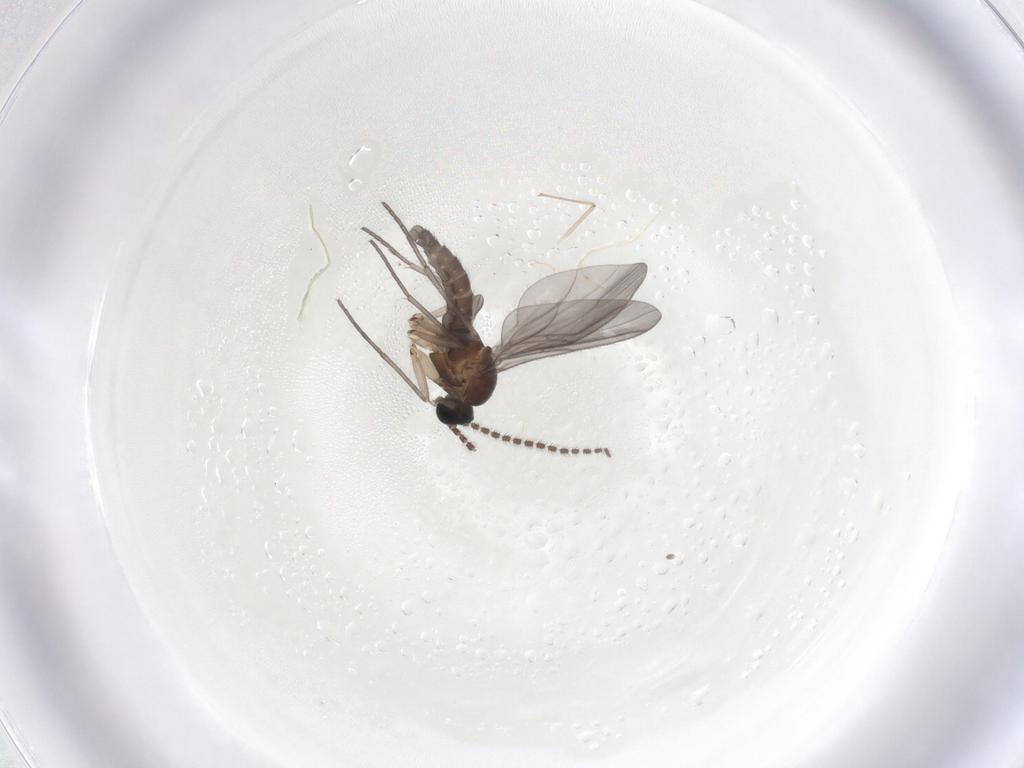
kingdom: Animalia
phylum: Arthropoda
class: Insecta
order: Diptera
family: Sciaridae
